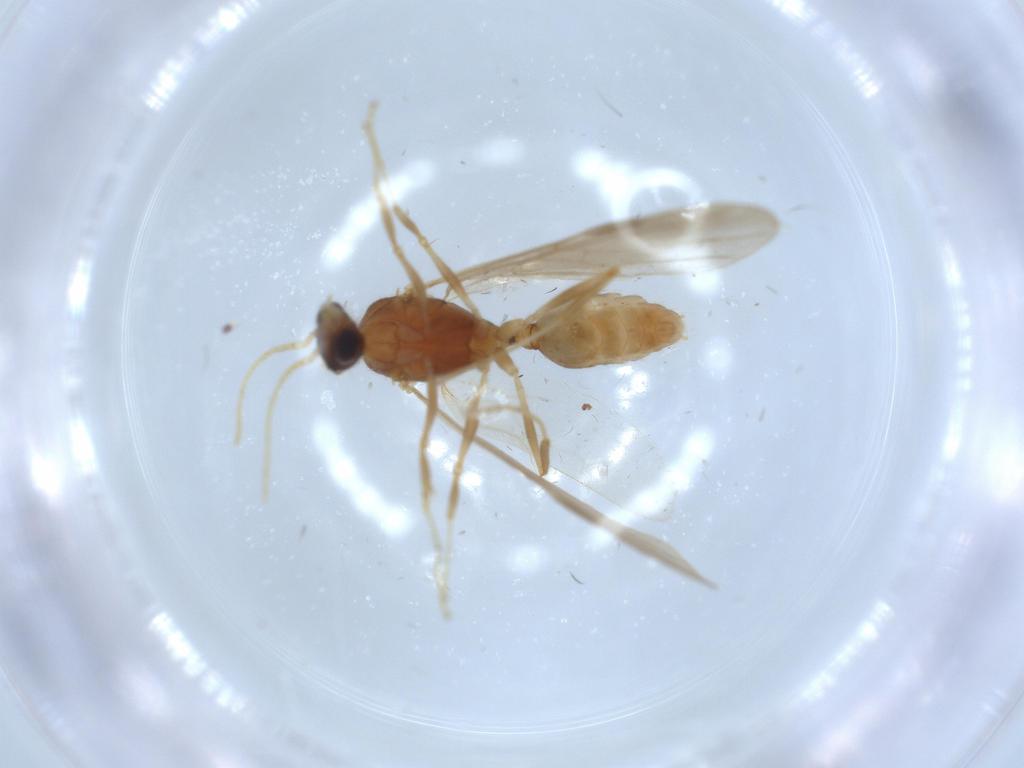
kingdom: Animalia
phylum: Arthropoda
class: Insecta
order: Hymenoptera
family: Formicidae
